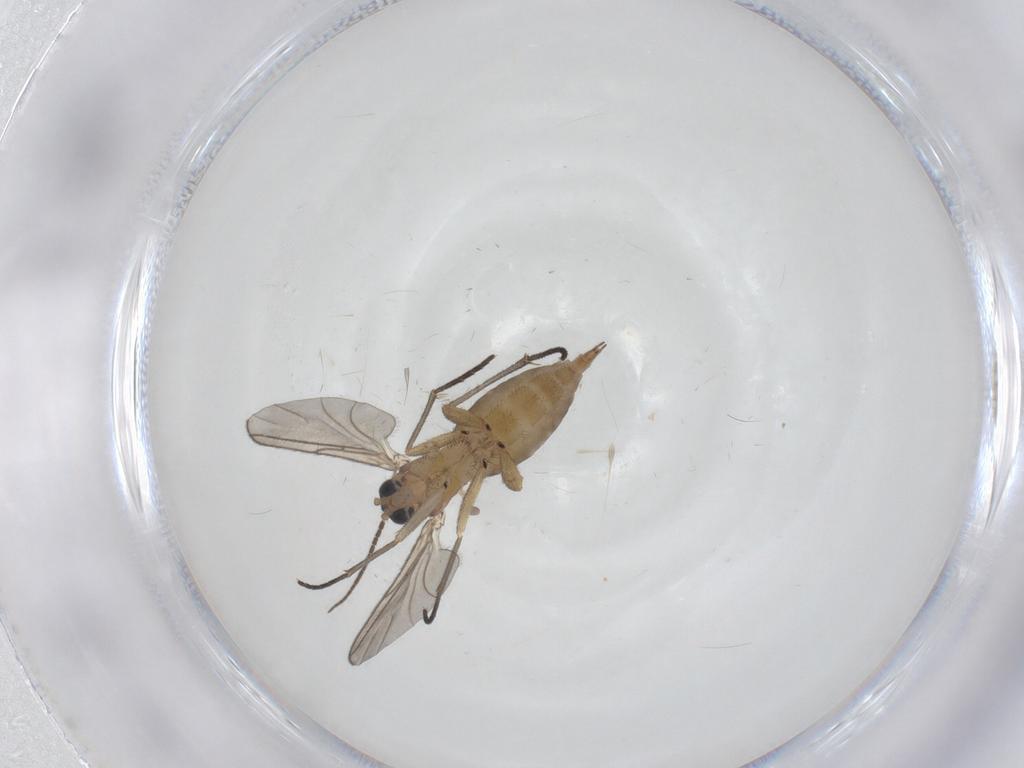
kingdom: Animalia
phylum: Arthropoda
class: Insecta
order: Diptera
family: Sciaridae
